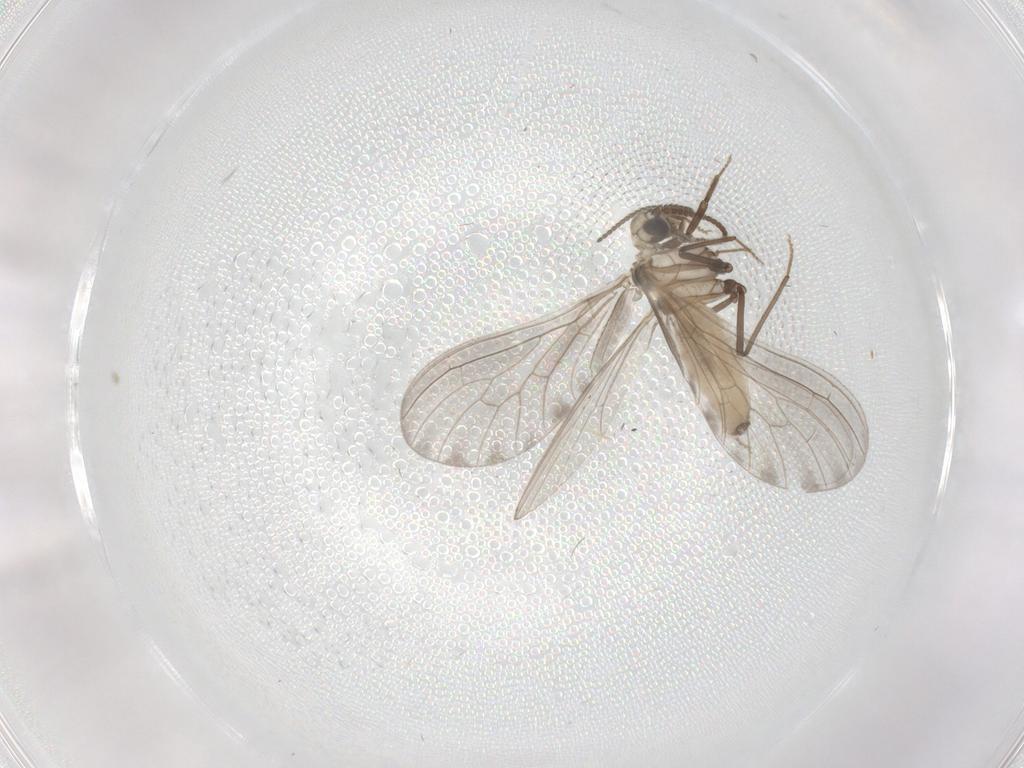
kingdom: Animalia
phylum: Arthropoda
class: Insecta
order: Neuroptera
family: Coniopterygidae
